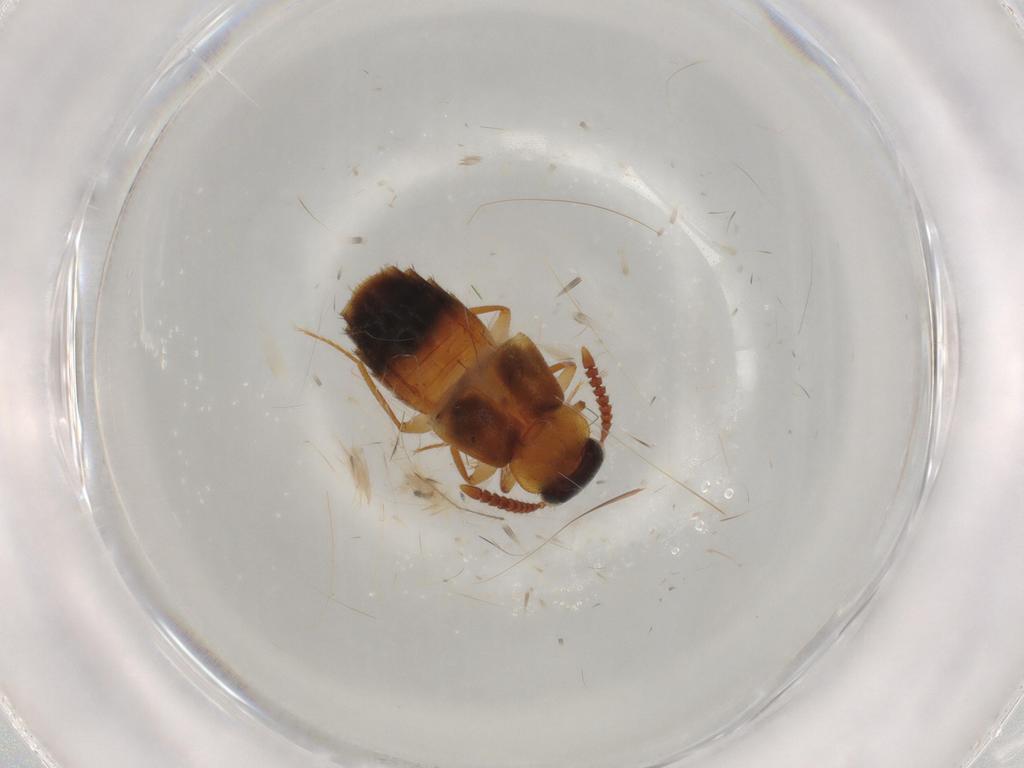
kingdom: Animalia
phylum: Arthropoda
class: Insecta
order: Coleoptera
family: Staphylinidae
